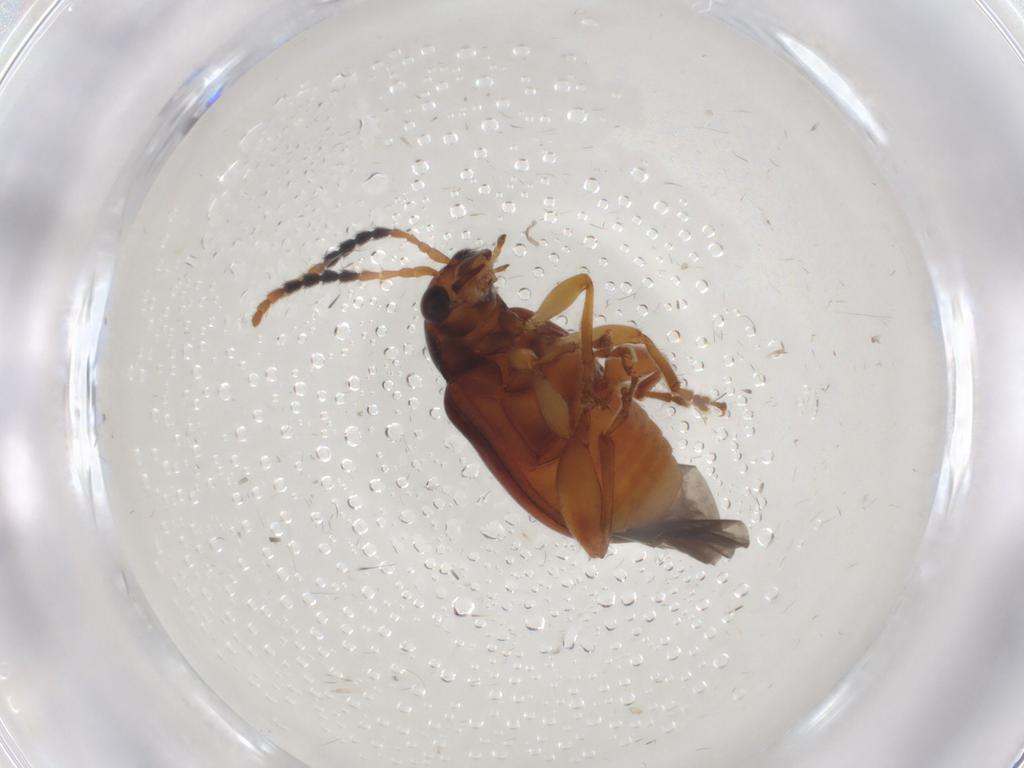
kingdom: Animalia
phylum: Arthropoda
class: Insecta
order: Coleoptera
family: Chrysomelidae
